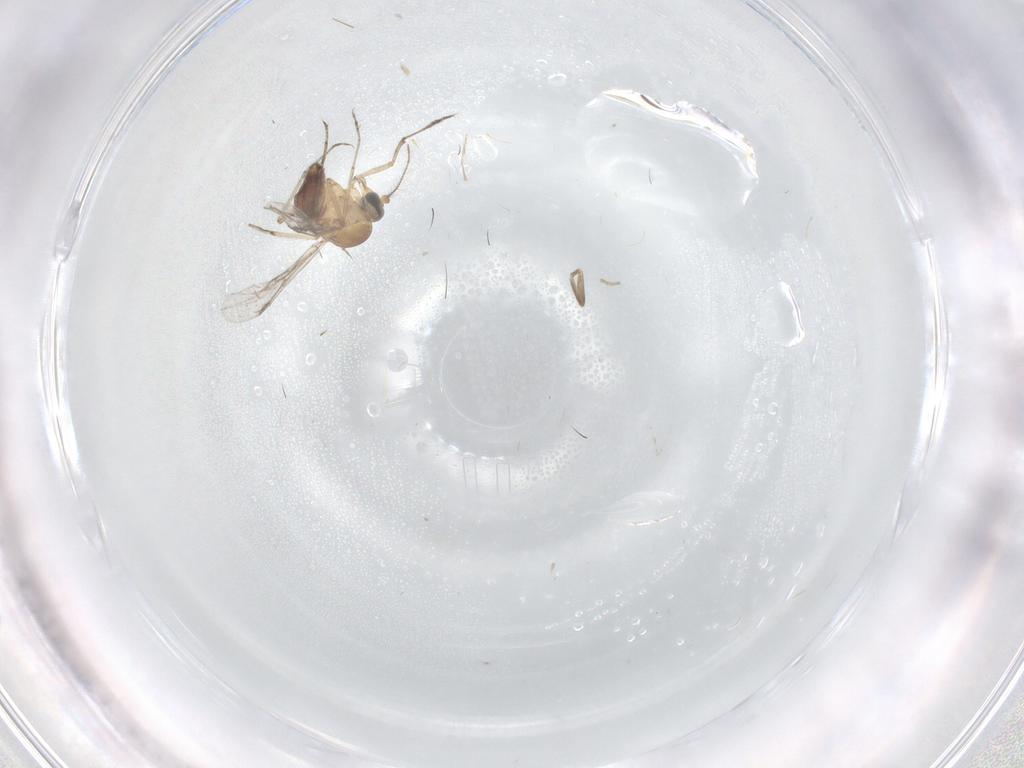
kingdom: Animalia
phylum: Arthropoda
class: Insecta
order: Diptera
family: Phoridae
